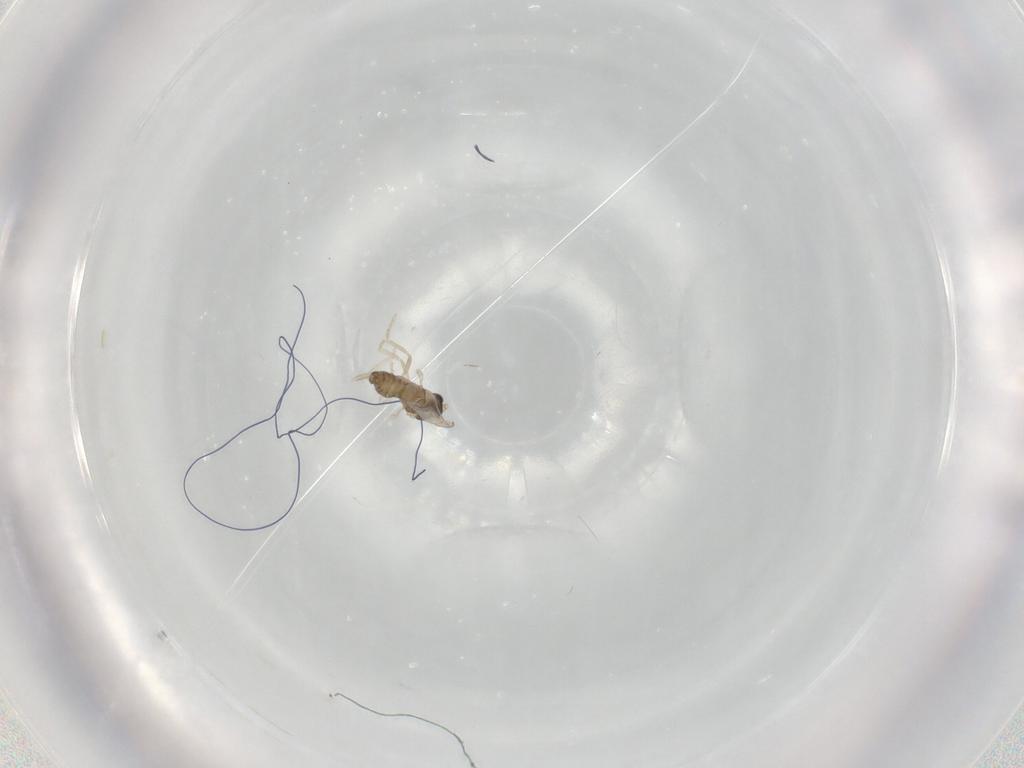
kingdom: Animalia
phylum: Arthropoda
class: Insecta
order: Diptera
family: Cecidomyiidae
